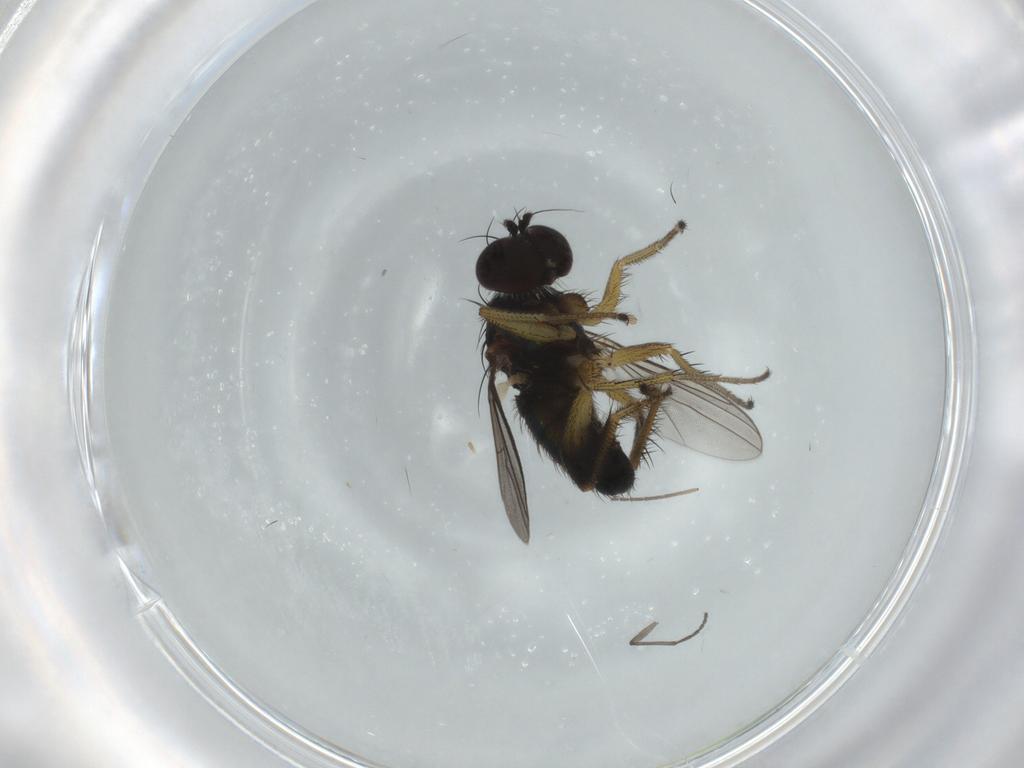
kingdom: Animalia
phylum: Arthropoda
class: Insecta
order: Diptera
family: Dolichopodidae
